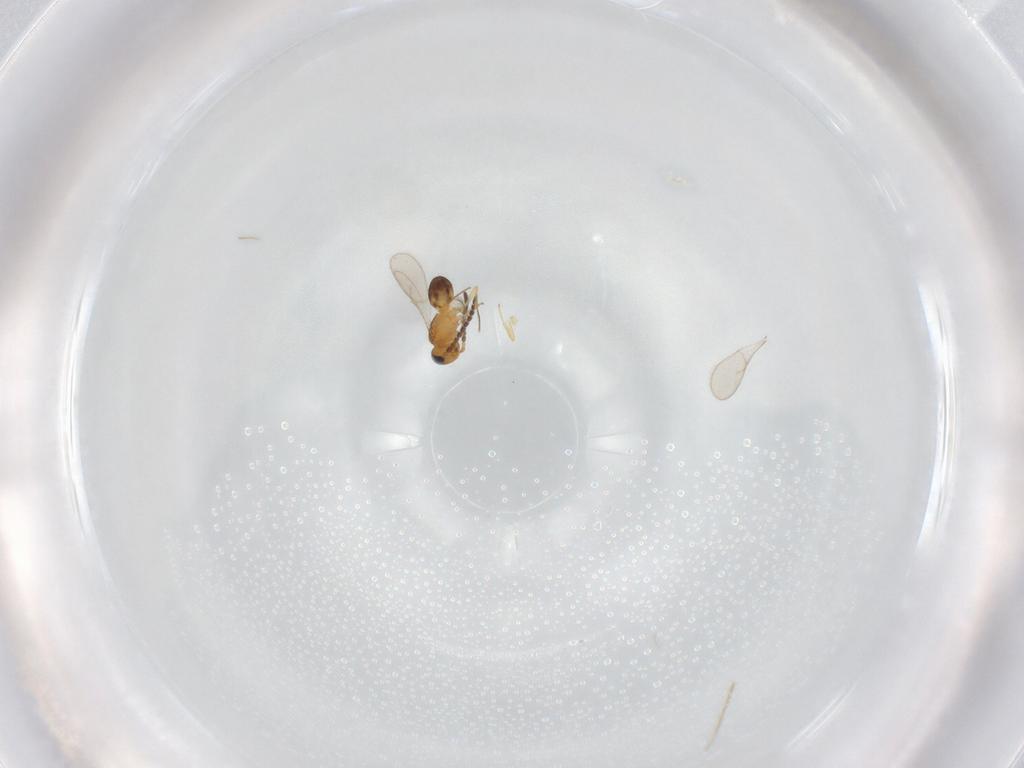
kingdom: Animalia
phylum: Arthropoda
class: Insecta
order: Hymenoptera
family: Scelionidae
